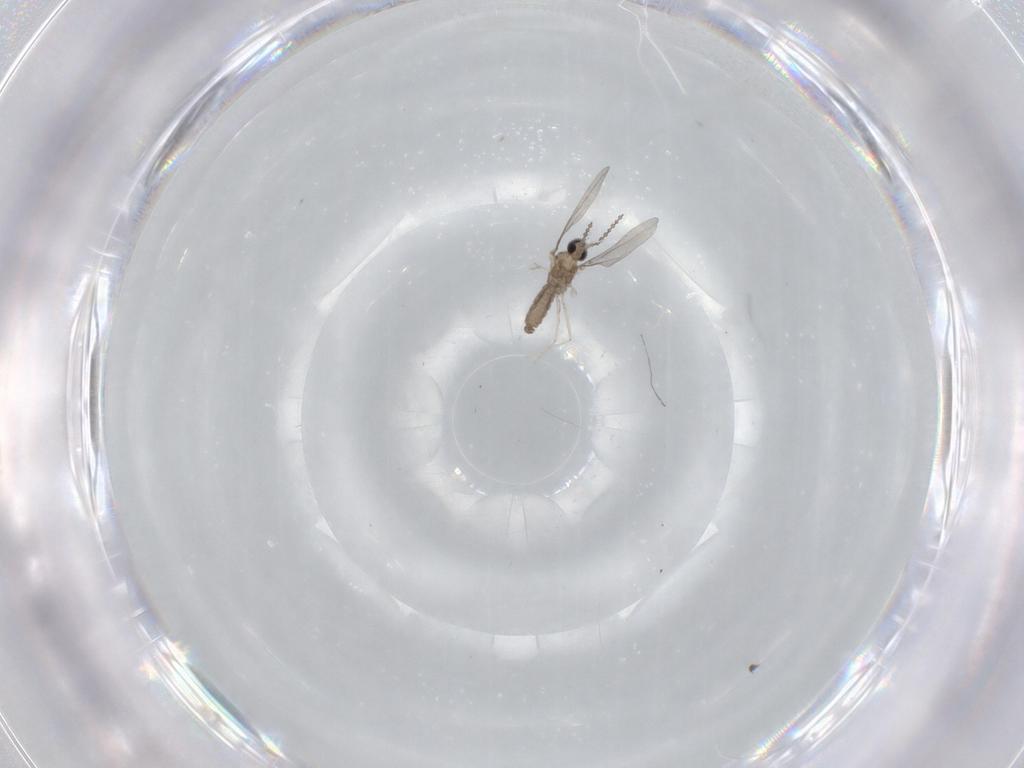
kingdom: Animalia
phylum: Arthropoda
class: Insecta
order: Diptera
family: Cecidomyiidae
